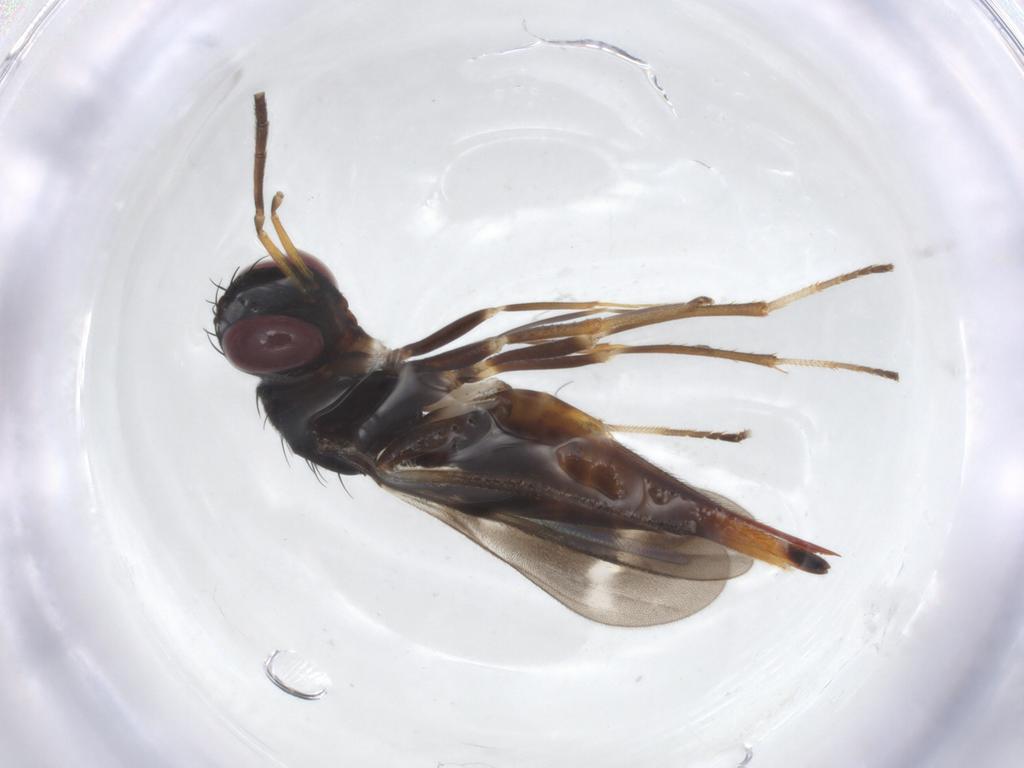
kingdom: Animalia
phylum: Arthropoda
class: Insecta
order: Hymenoptera
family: Diparidae
